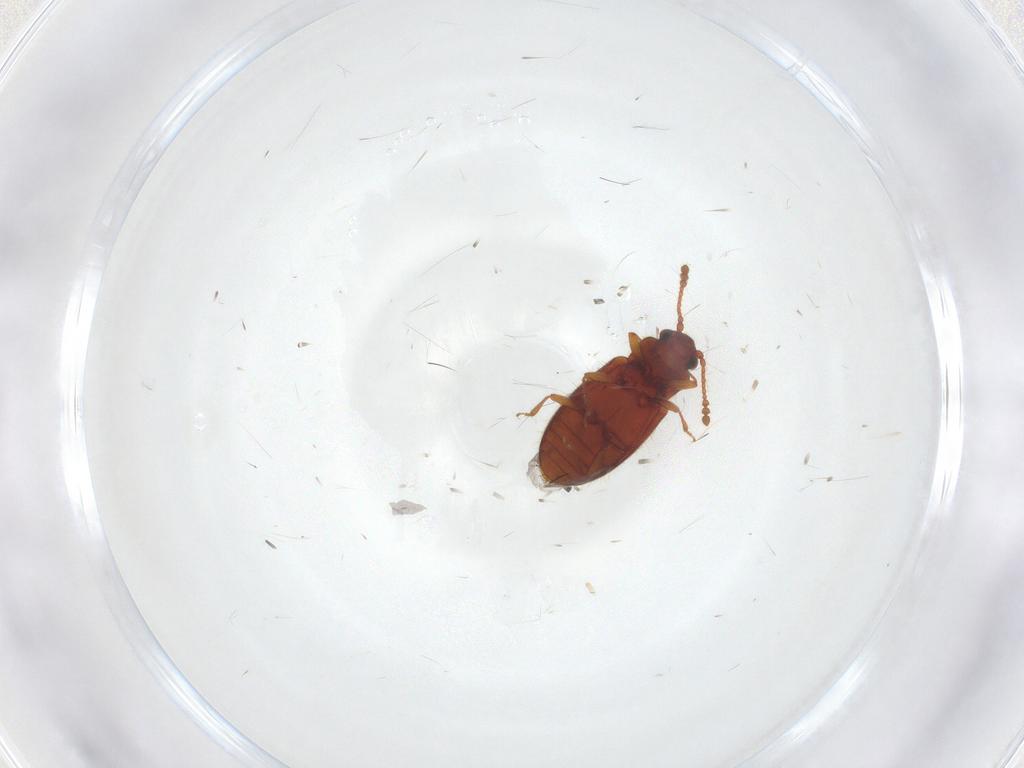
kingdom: Animalia
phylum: Arthropoda
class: Insecta
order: Coleoptera
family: Cryptophagidae
